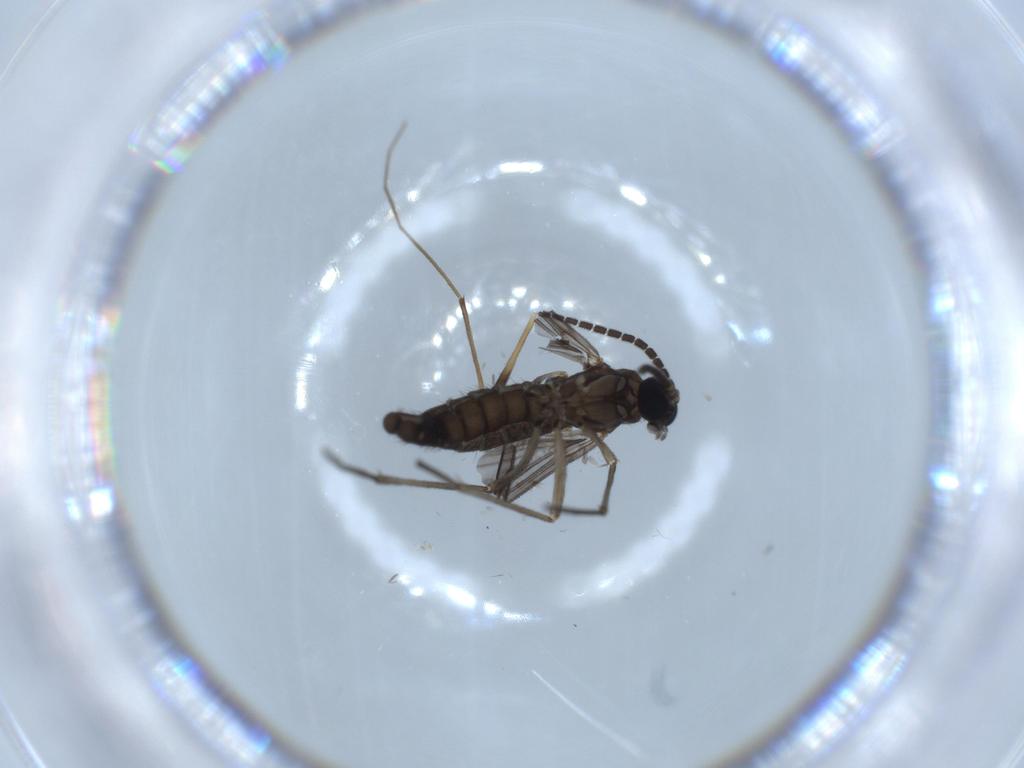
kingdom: Animalia
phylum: Arthropoda
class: Insecta
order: Diptera
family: Sciaridae
